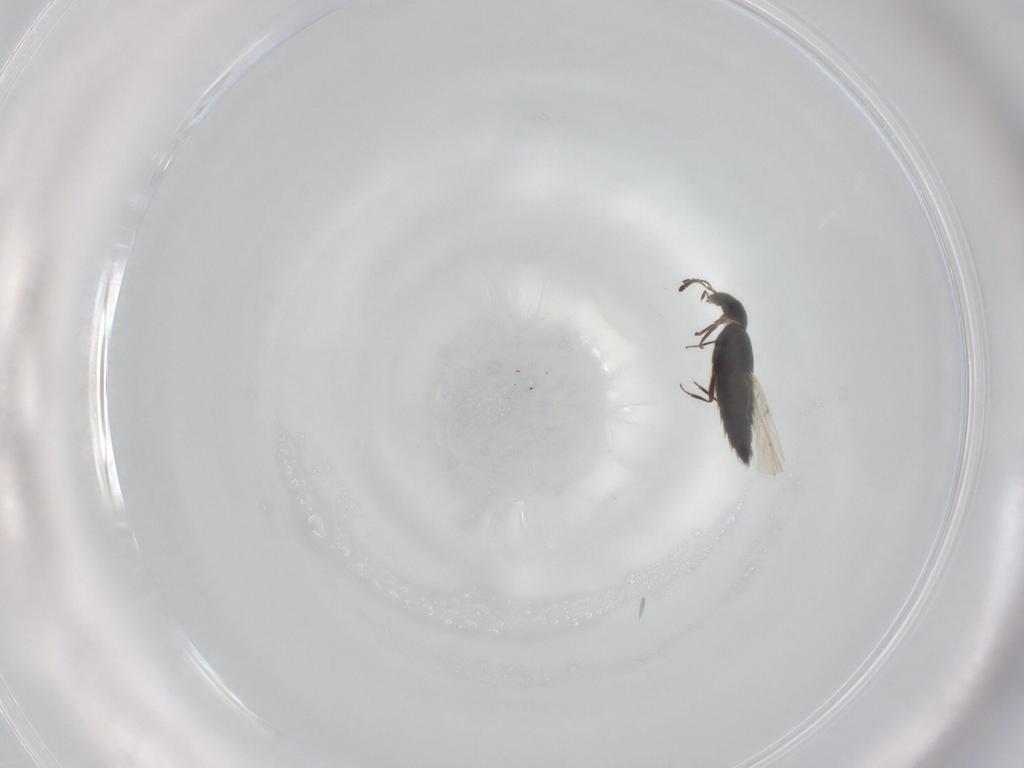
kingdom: Animalia
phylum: Arthropoda
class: Insecta
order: Coleoptera
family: Staphylinidae
